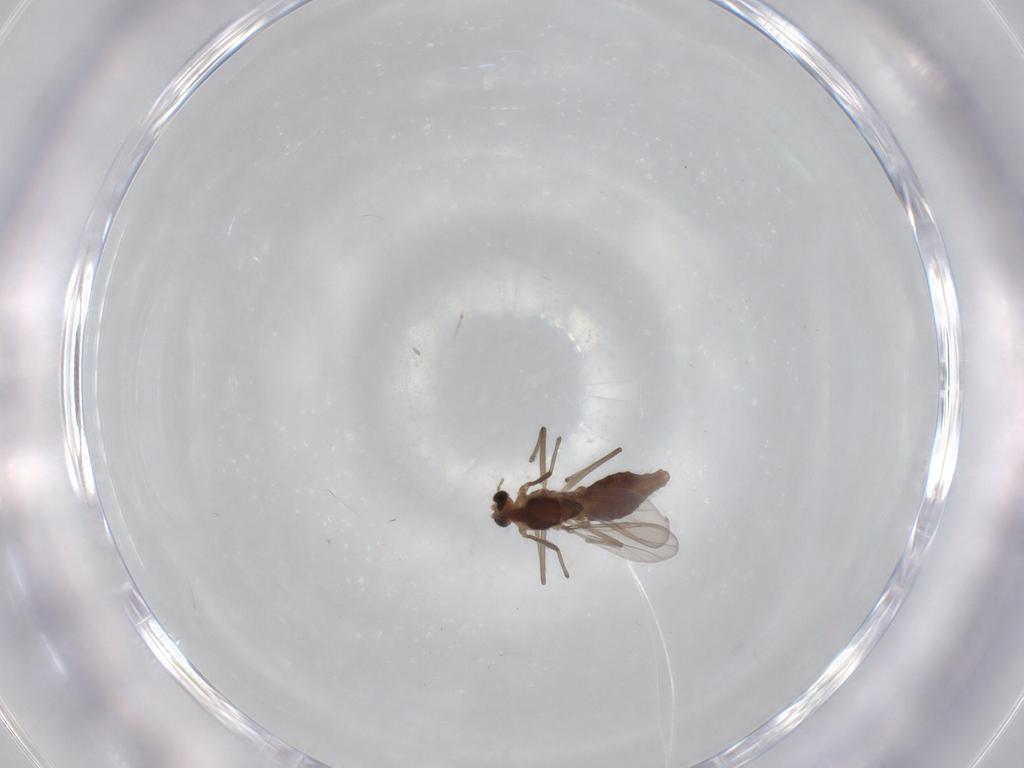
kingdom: Animalia
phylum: Arthropoda
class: Insecta
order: Diptera
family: Chironomidae
